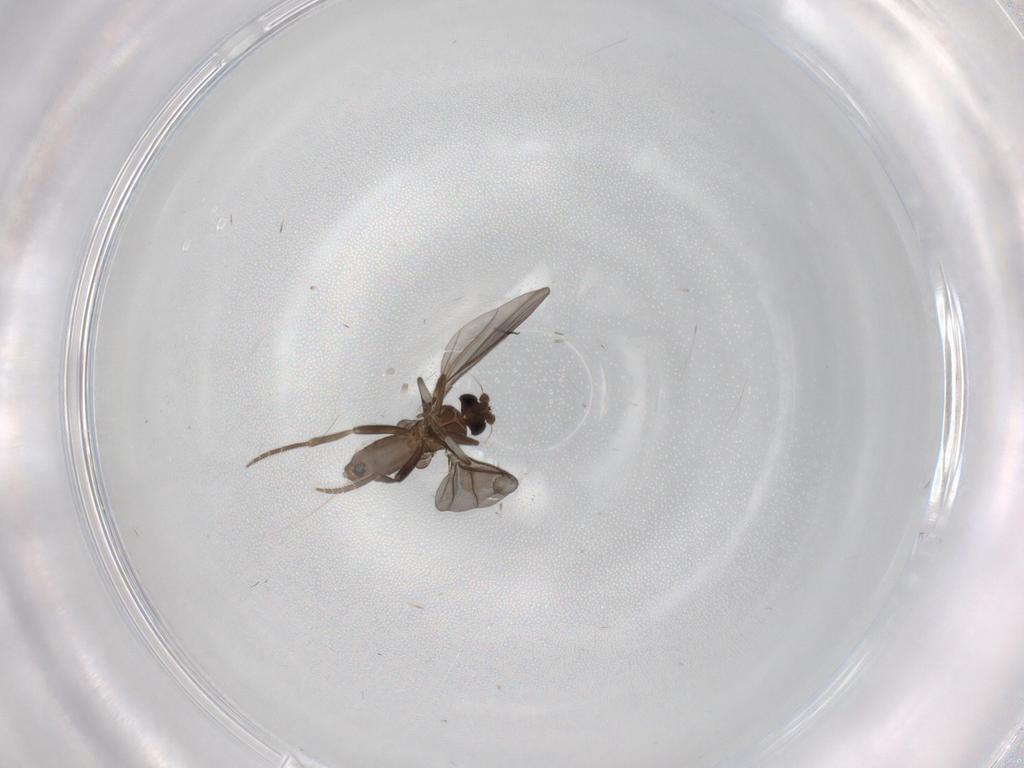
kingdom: Animalia
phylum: Arthropoda
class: Insecta
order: Diptera
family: Phoridae
